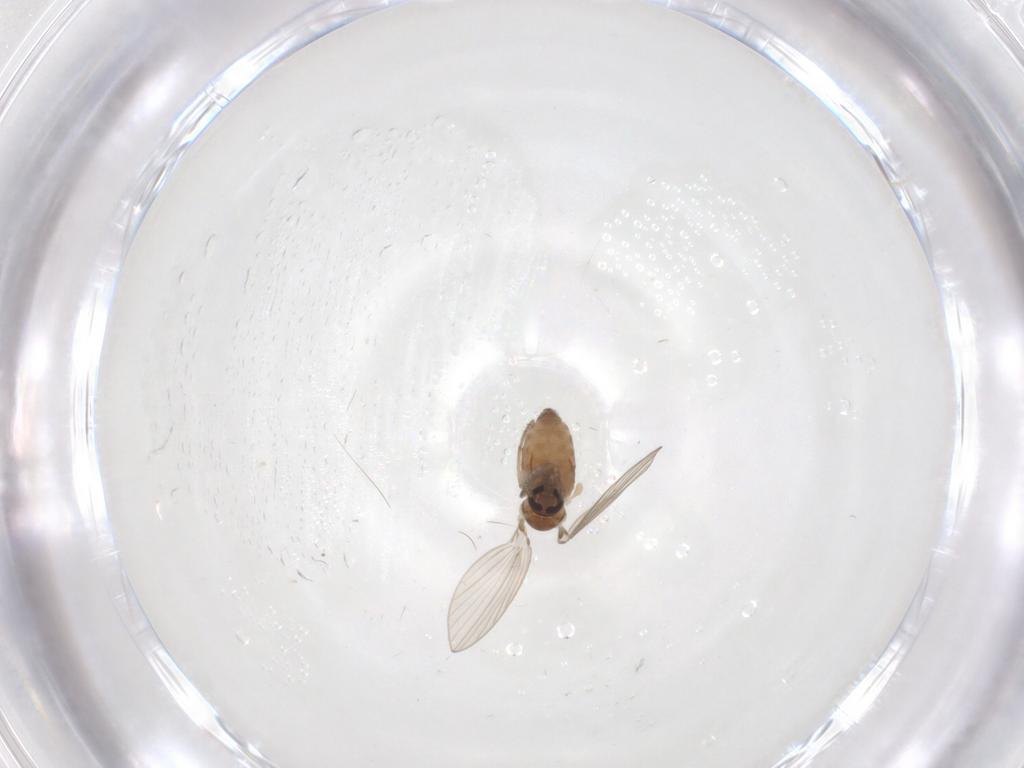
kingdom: Animalia
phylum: Arthropoda
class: Insecta
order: Diptera
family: Psychodidae
